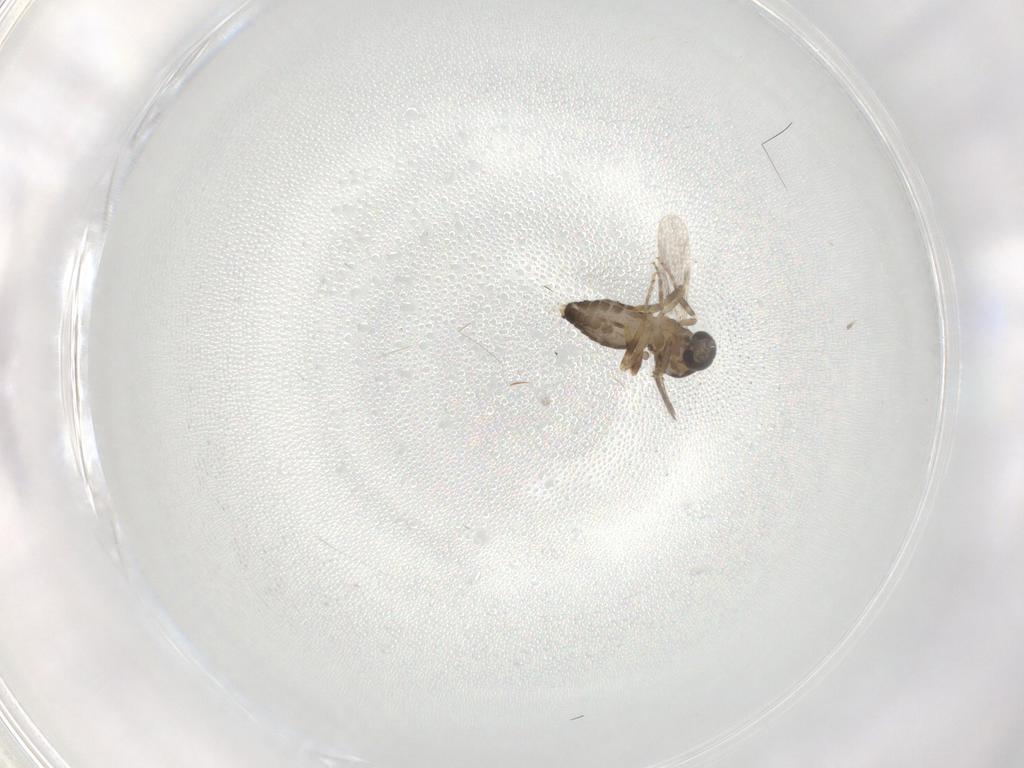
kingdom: Animalia
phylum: Arthropoda
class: Insecta
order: Diptera
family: Ceratopogonidae
